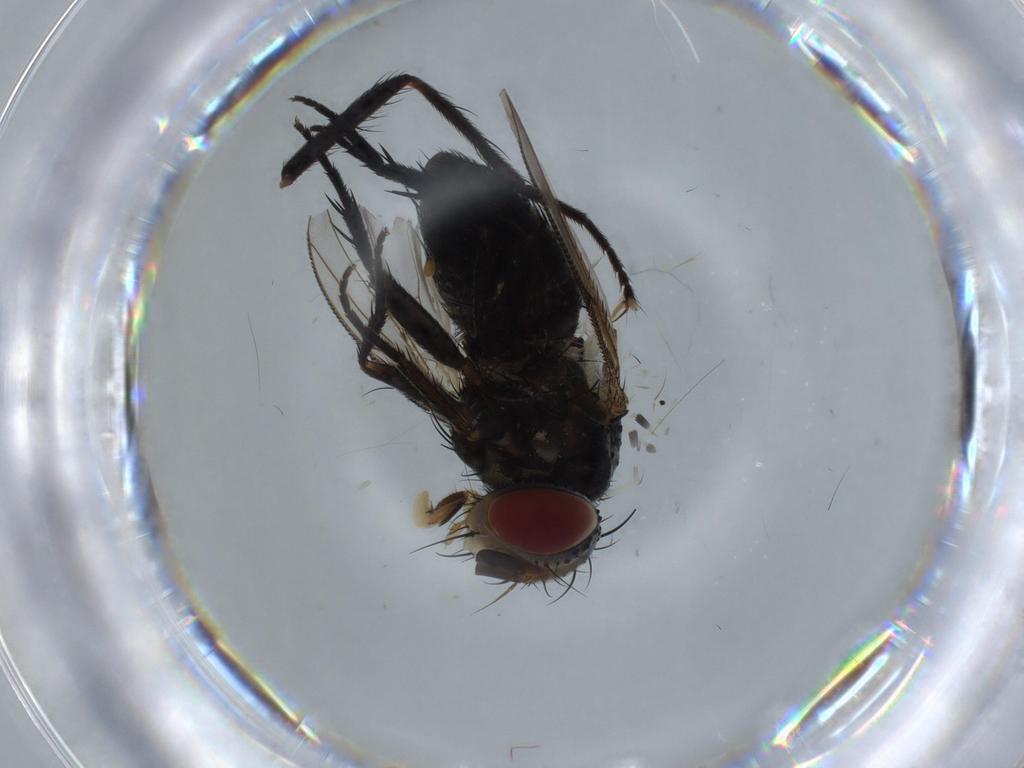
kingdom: Animalia
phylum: Arthropoda
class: Insecta
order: Diptera
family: Tachinidae
